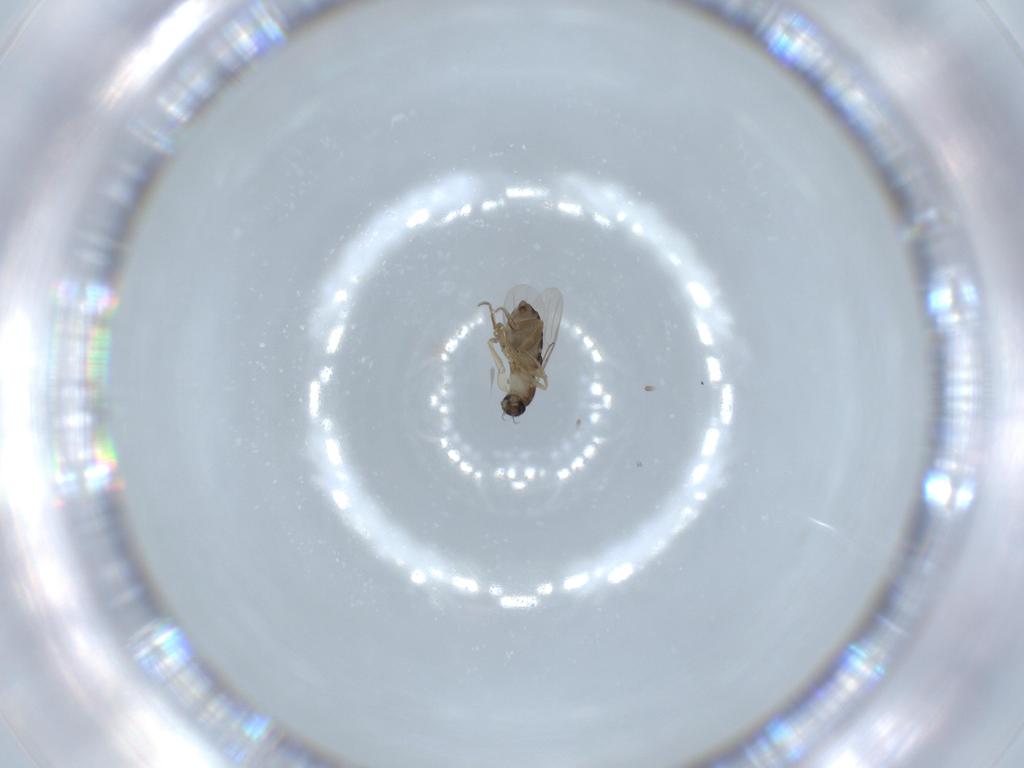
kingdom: Animalia
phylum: Arthropoda
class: Insecta
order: Diptera
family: Phoridae
